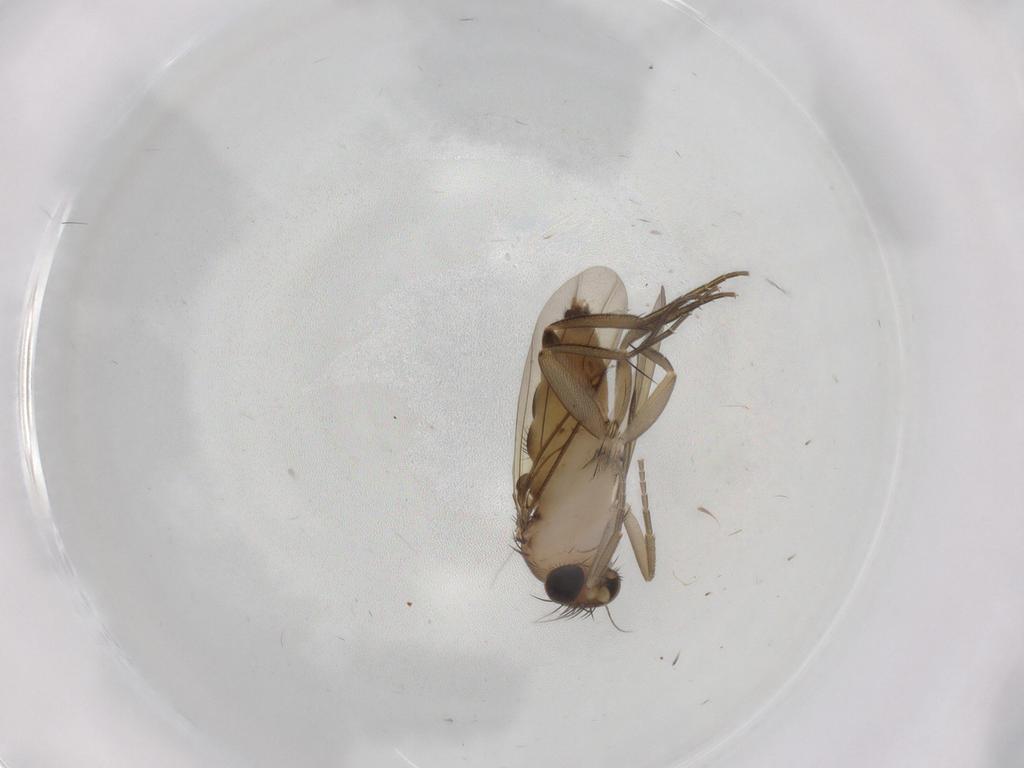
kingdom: Animalia
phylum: Arthropoda
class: Insecta
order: Diptera
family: Phoridae
